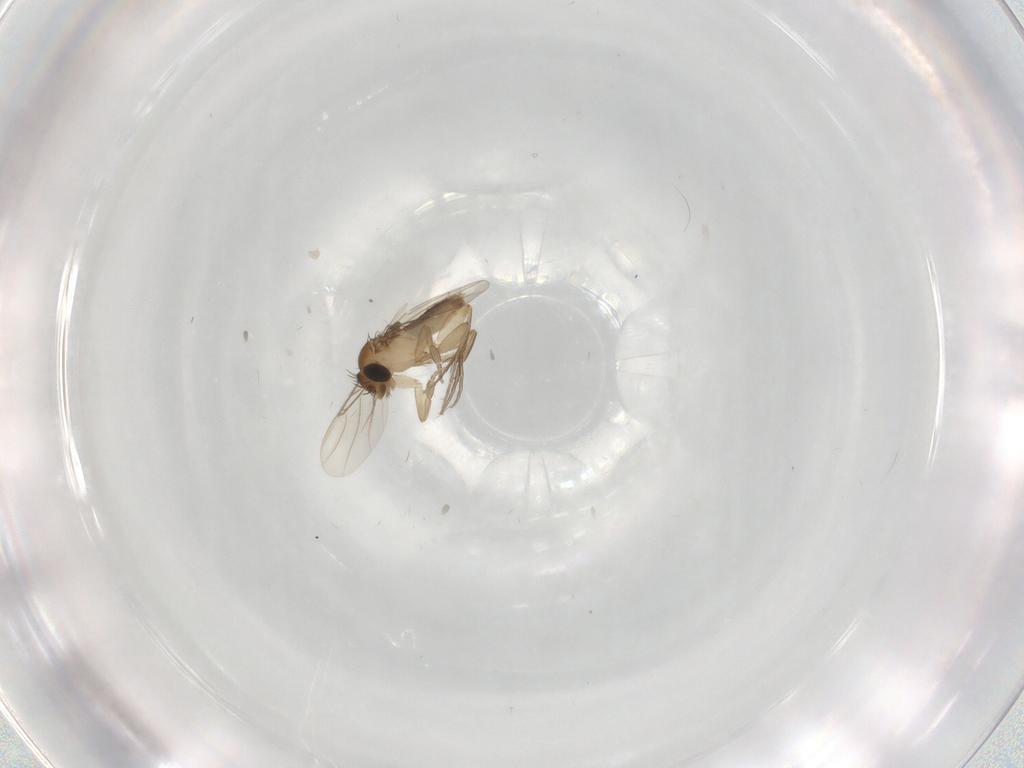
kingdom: Animalia
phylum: Arthropoda
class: Insecta
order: Diptera
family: Phoridae
